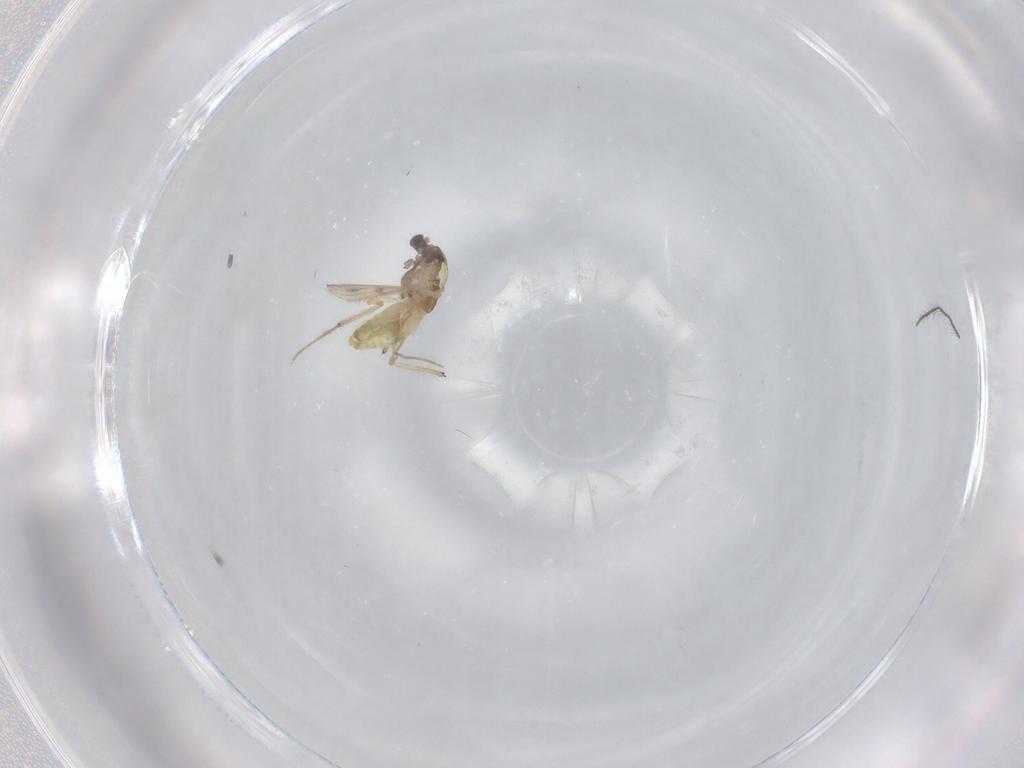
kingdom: Animalia
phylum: Arthropoda
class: Insecta
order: Diptera
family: Chironomidae
